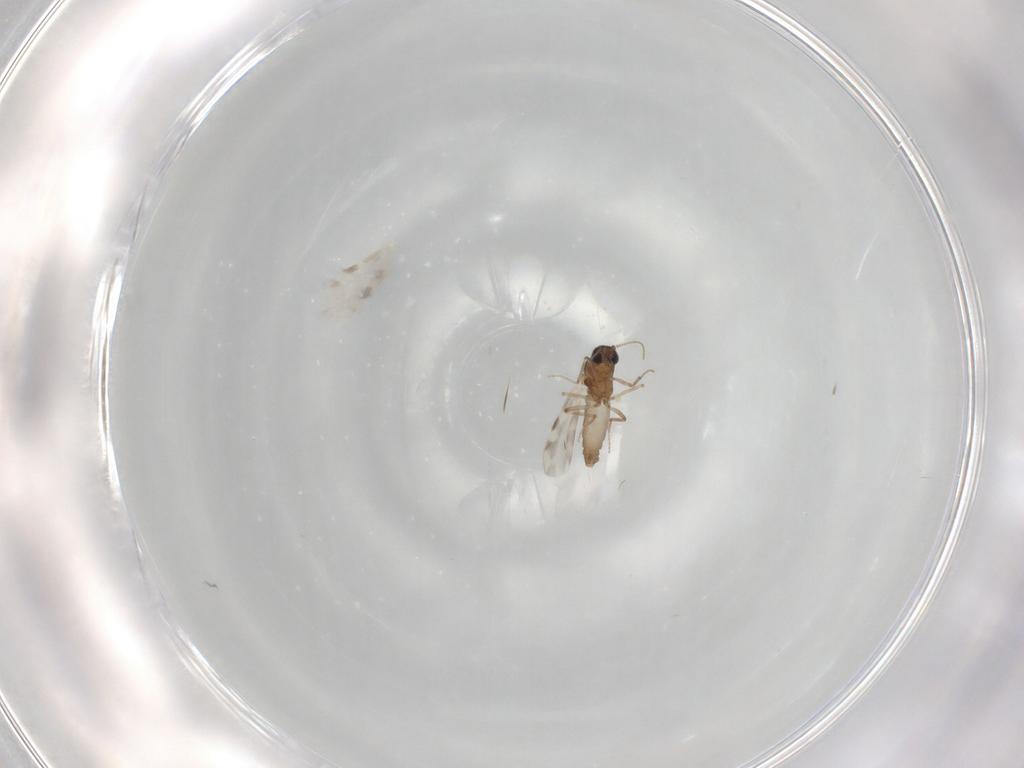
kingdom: Animalia
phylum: Arthropoda
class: Insecta
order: Diptera
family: Ceratopogonidae
